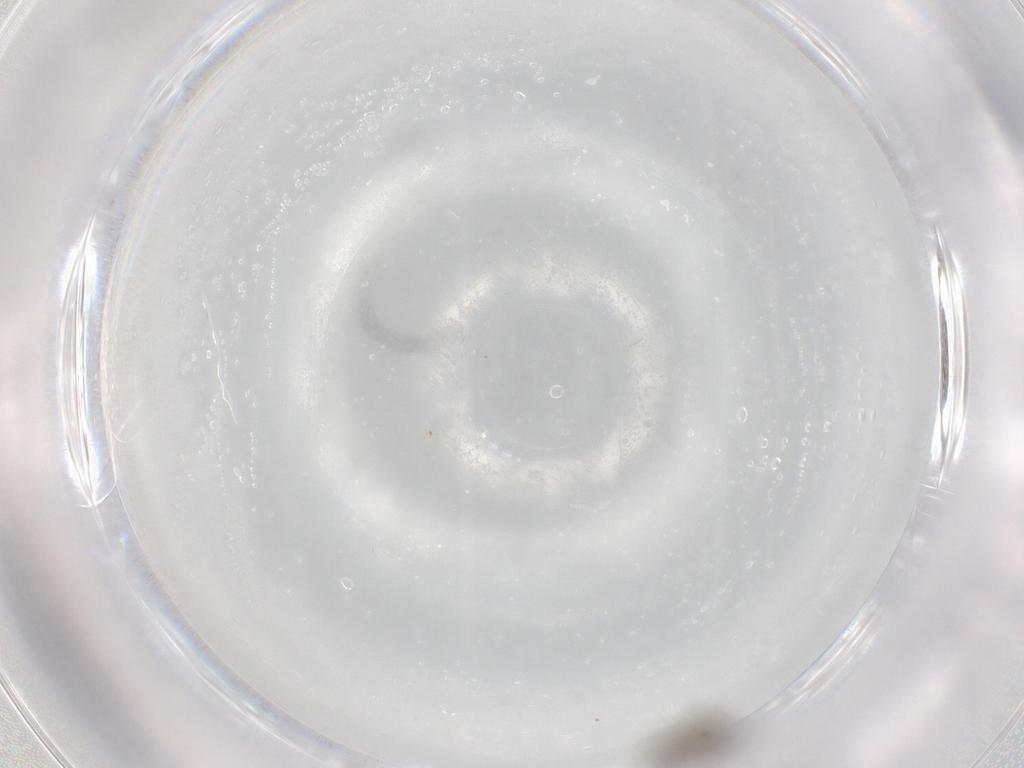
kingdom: Animalia
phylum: Arthropoda
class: Insecta
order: Diptera
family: Phoridae
